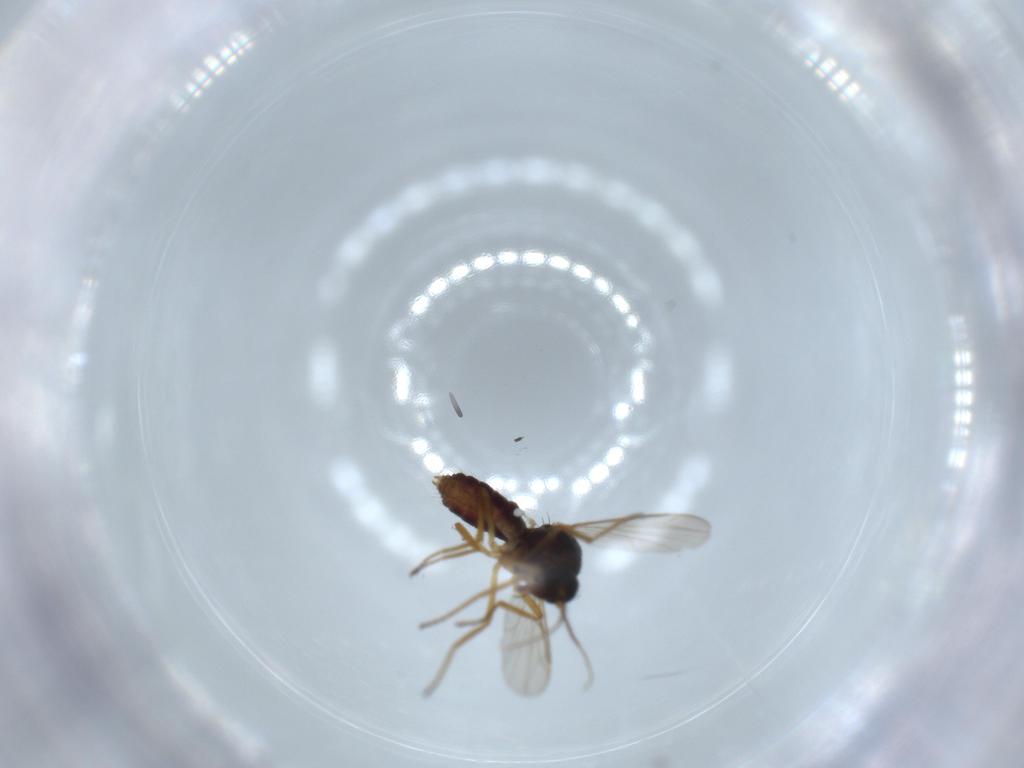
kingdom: Animalia
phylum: Arthropoda
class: Insecta
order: Diptera
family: Ceratopogonidae
